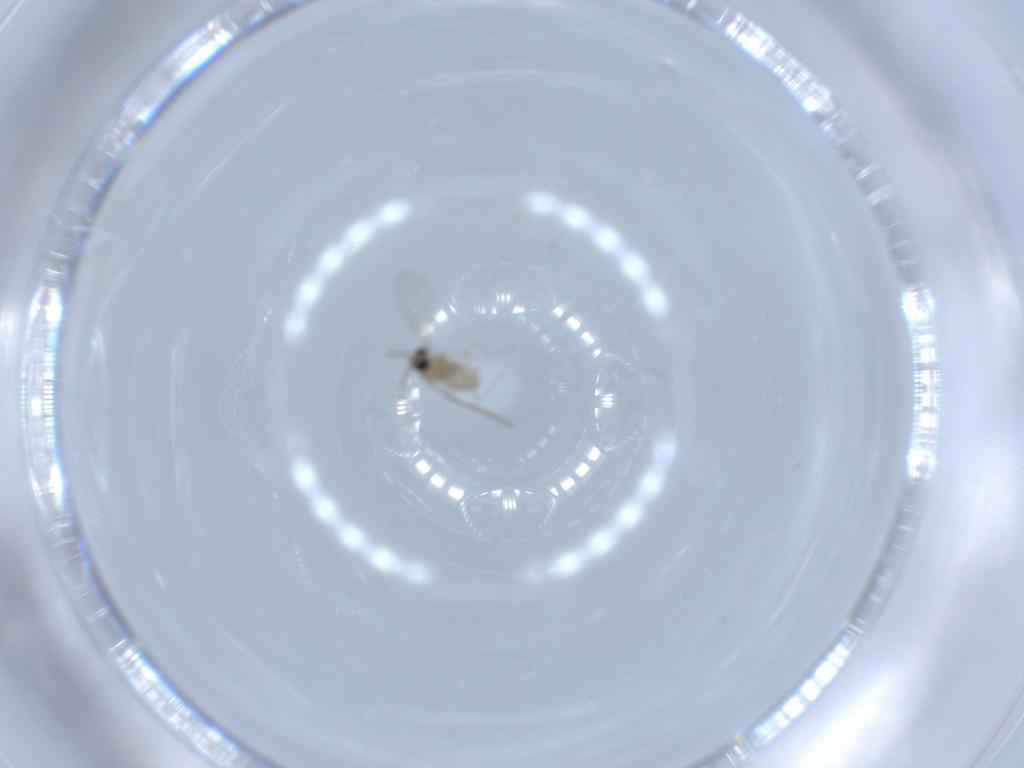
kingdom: Animalia
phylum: Arthropoda
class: Insecta
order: Diptera
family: Cecidomyiidae
